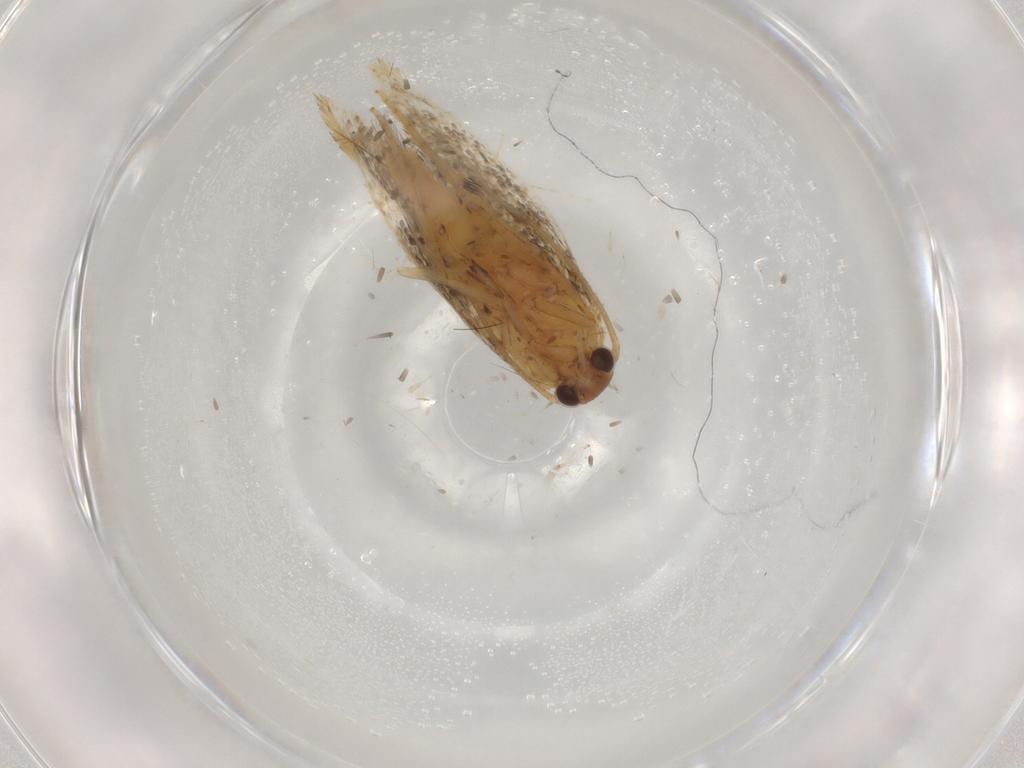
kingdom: Animalia
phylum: Arthropoda
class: Insecta
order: Lepidoptera
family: Elachistidae
